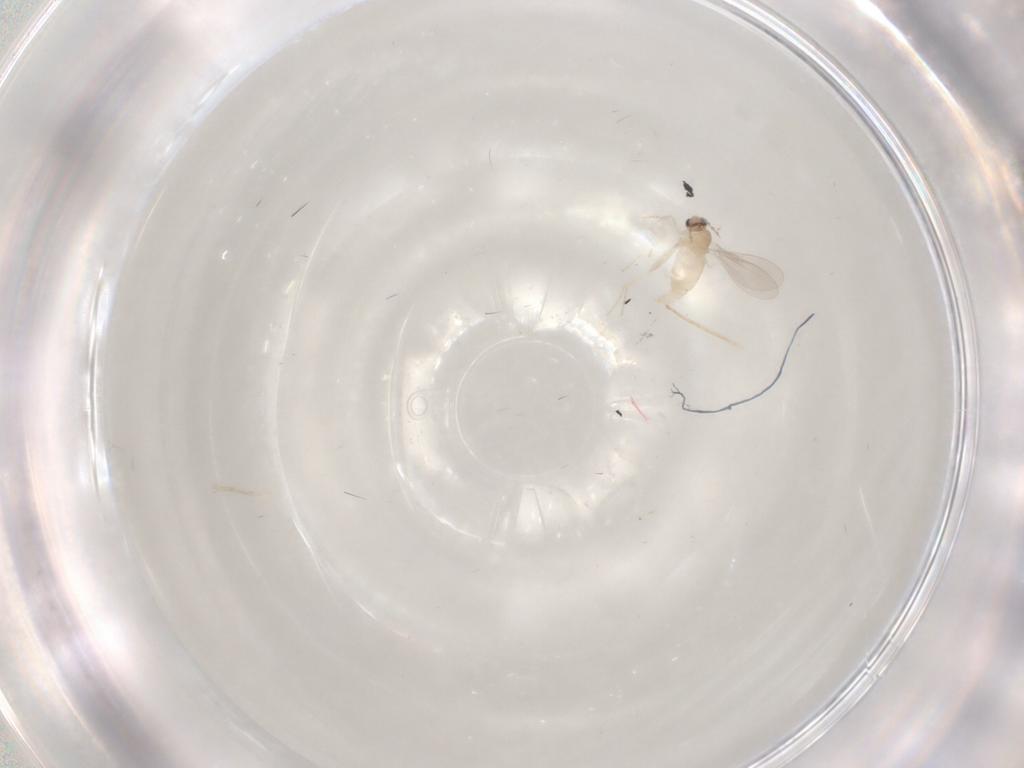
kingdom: Animalia
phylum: Arthropoda
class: Insecta
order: Diptera
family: Cecidomyiidae
